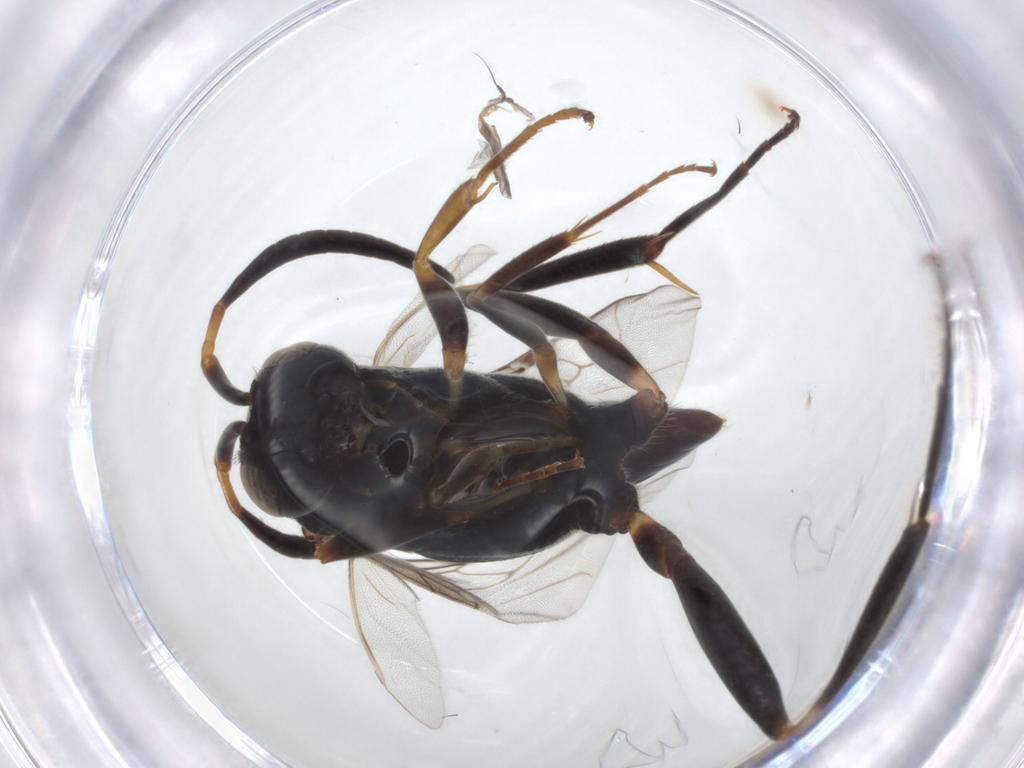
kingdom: Animalia
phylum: Arthropoda
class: Insecta
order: Hymenoptera
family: Evaniidae
